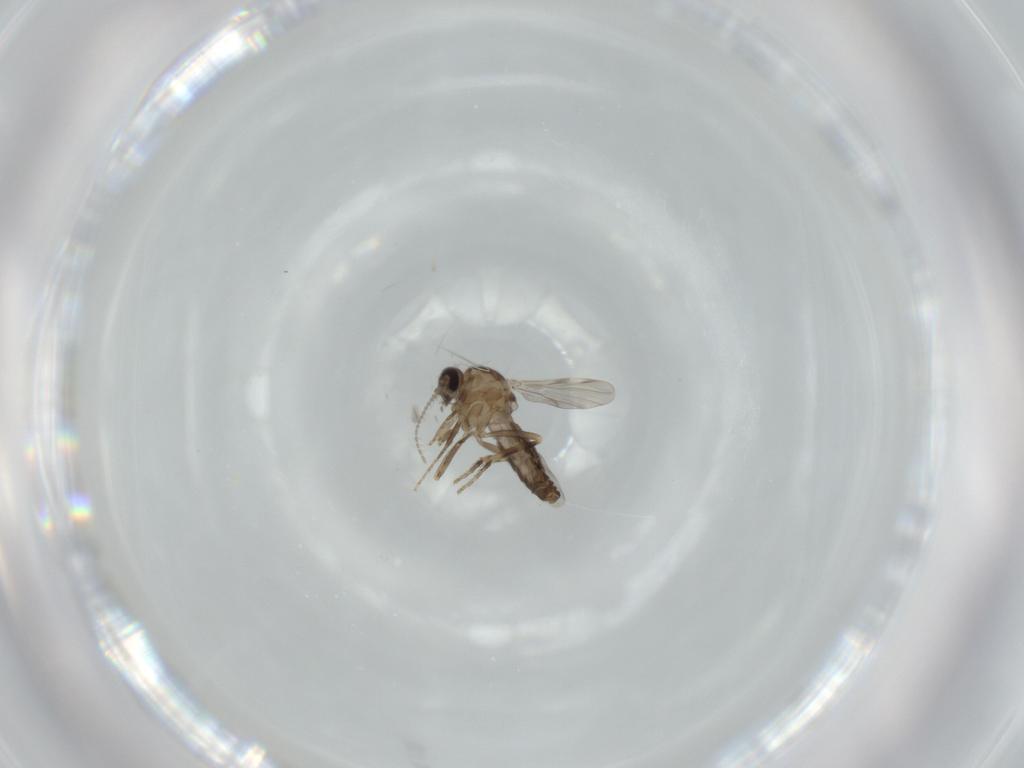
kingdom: Animalia
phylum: Arthropoda
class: Insecta
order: Diptera
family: Ceratopogonidae
